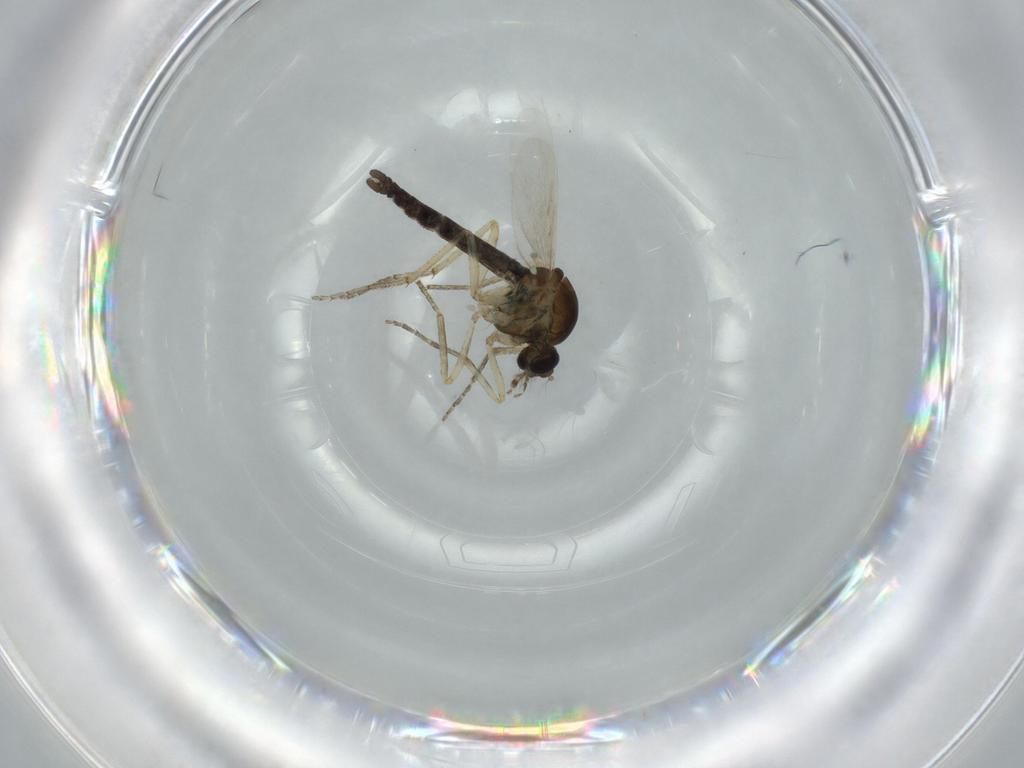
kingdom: Animalia
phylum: Arthropoda
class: Insecta
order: Diptera
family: Ceratopogonidae
